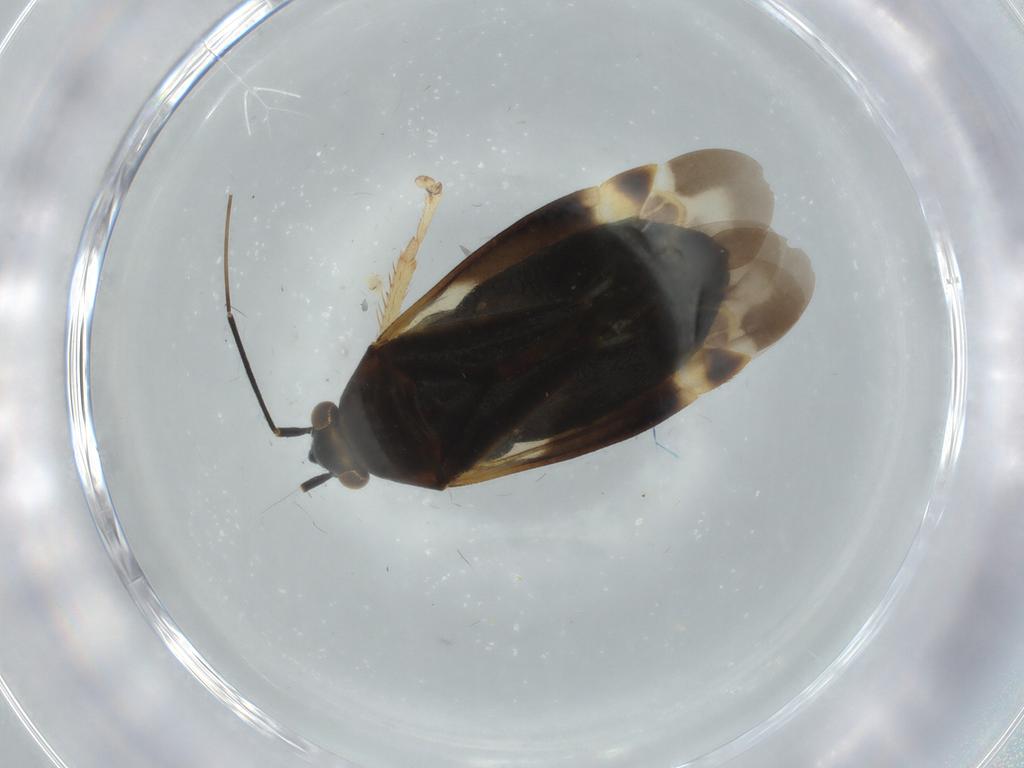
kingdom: Animalia
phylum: Arthropoda
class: Insecta
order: Hemiptera
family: Miridae
